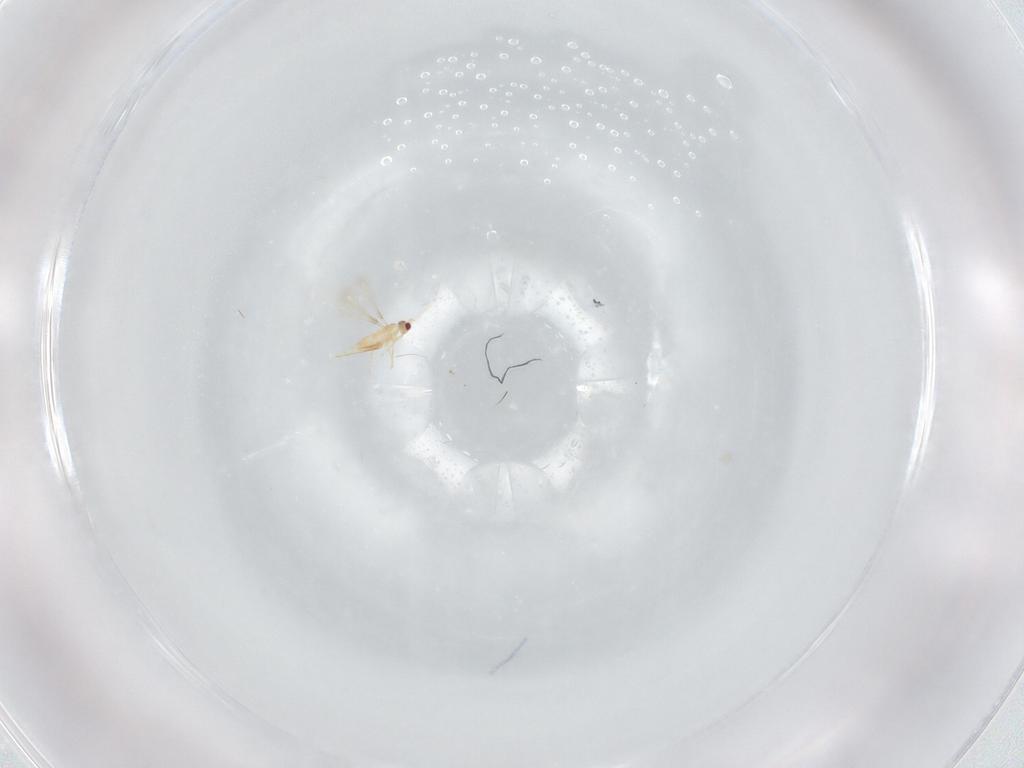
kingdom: Animalia
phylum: Arthropoda
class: Insecta
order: Hymenoptera
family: Mymaridae
